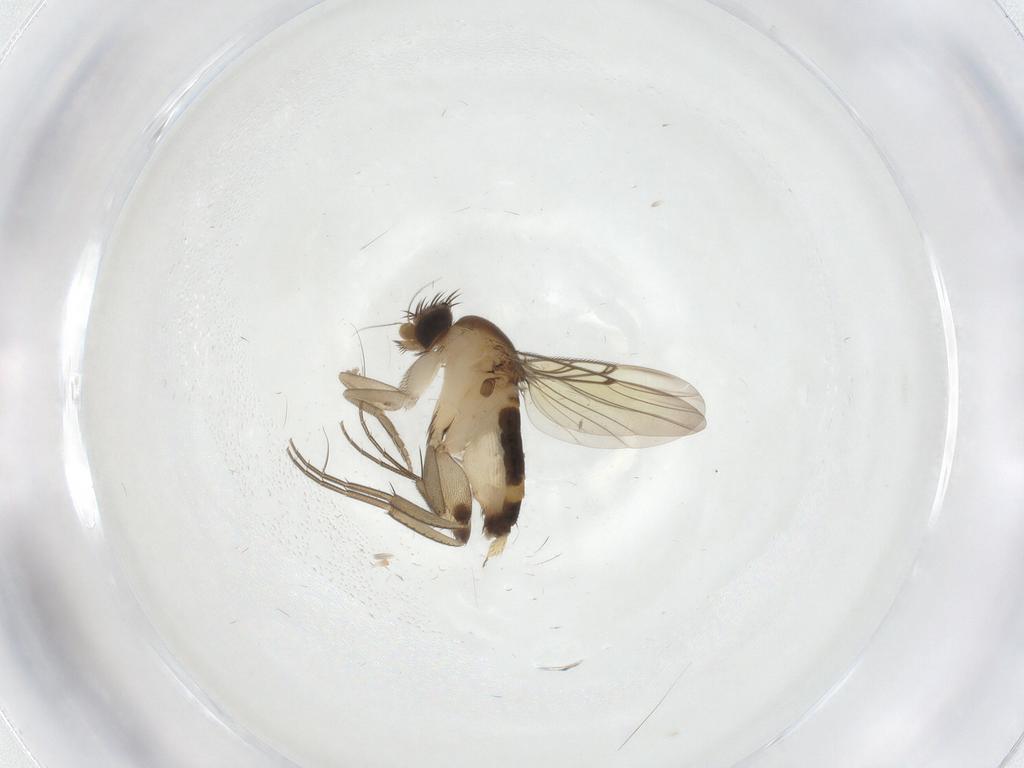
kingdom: Animalia
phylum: Arthropoda
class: Insecta
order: Diptera
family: Phoridae
